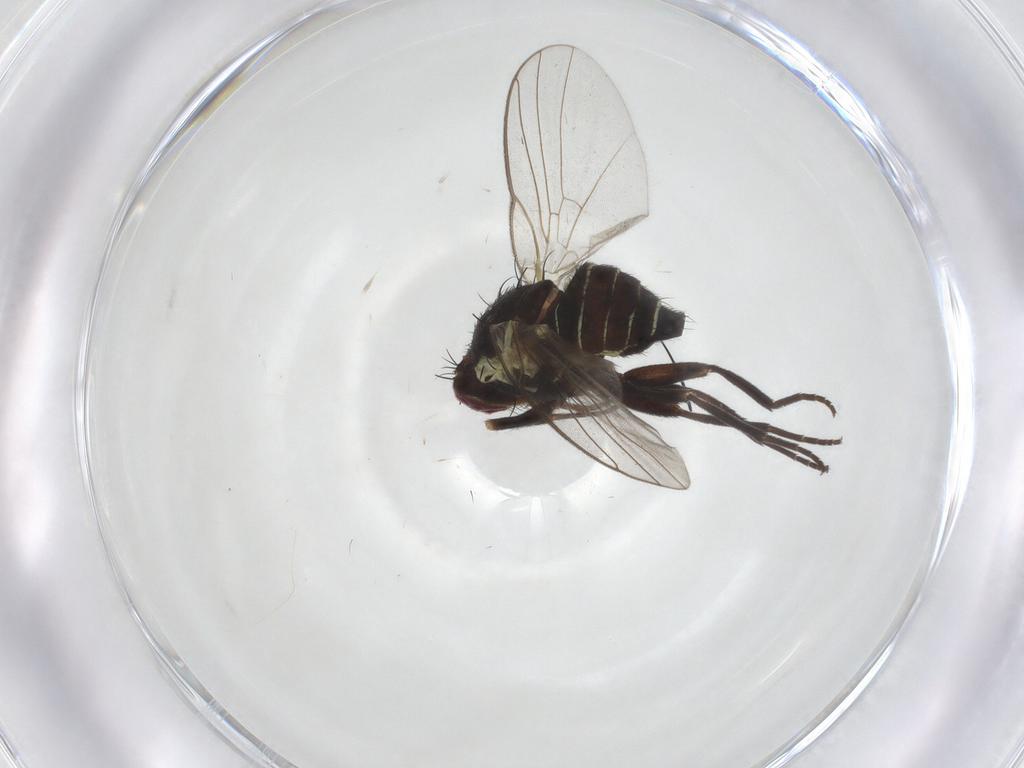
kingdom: Animalia
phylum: Arthropoda
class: Insecta
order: Diptera
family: Agromyzidae
